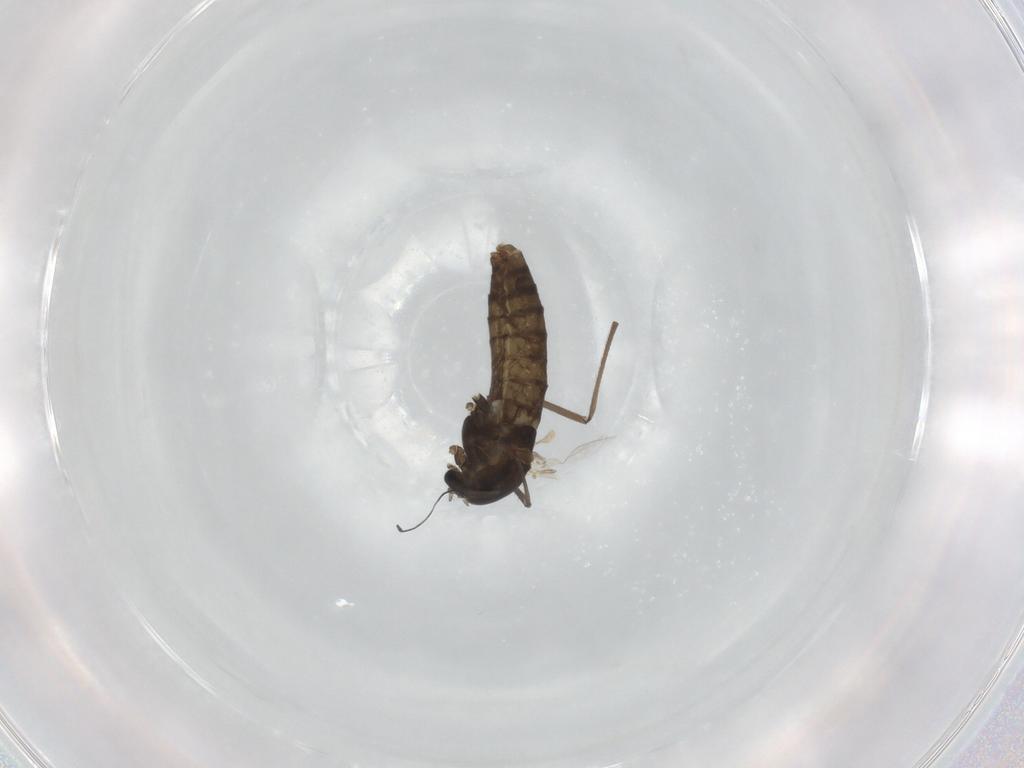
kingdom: Animalia
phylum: Arthropoda
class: Insecta
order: Diptera
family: Chironomidae
